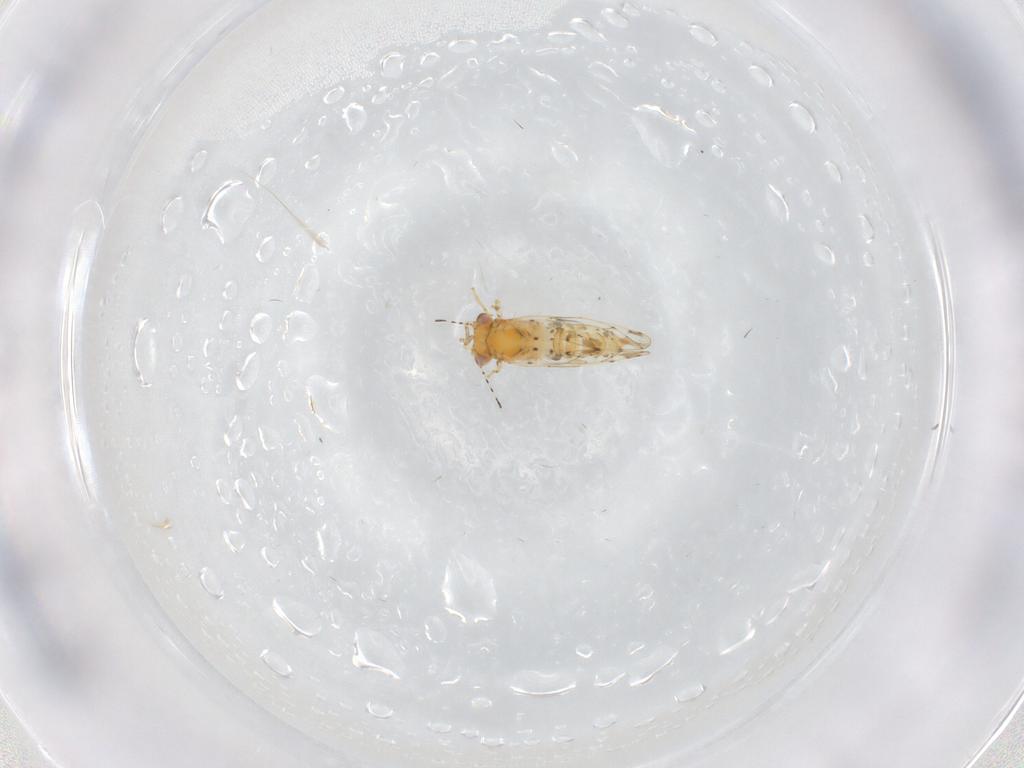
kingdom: Animalia
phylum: Arthropoda
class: Insecta
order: Hemiptera
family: Aphalaridae
